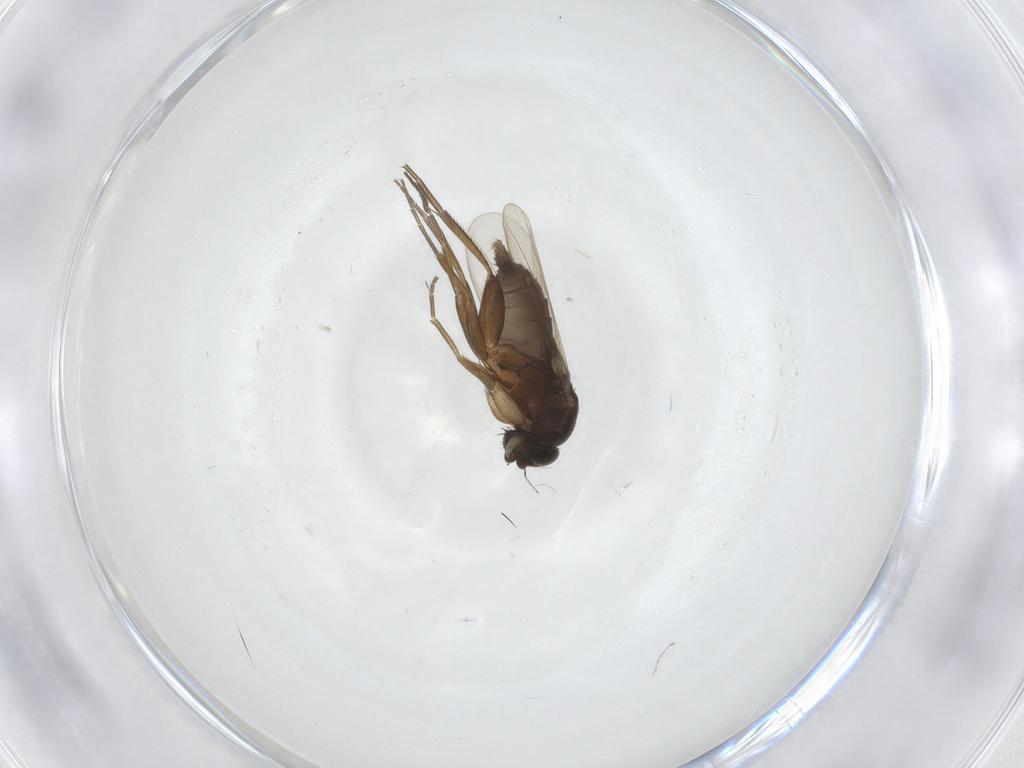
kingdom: Animalia
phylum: Arthropoda
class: Insecta
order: Diptera
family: Phoridae
